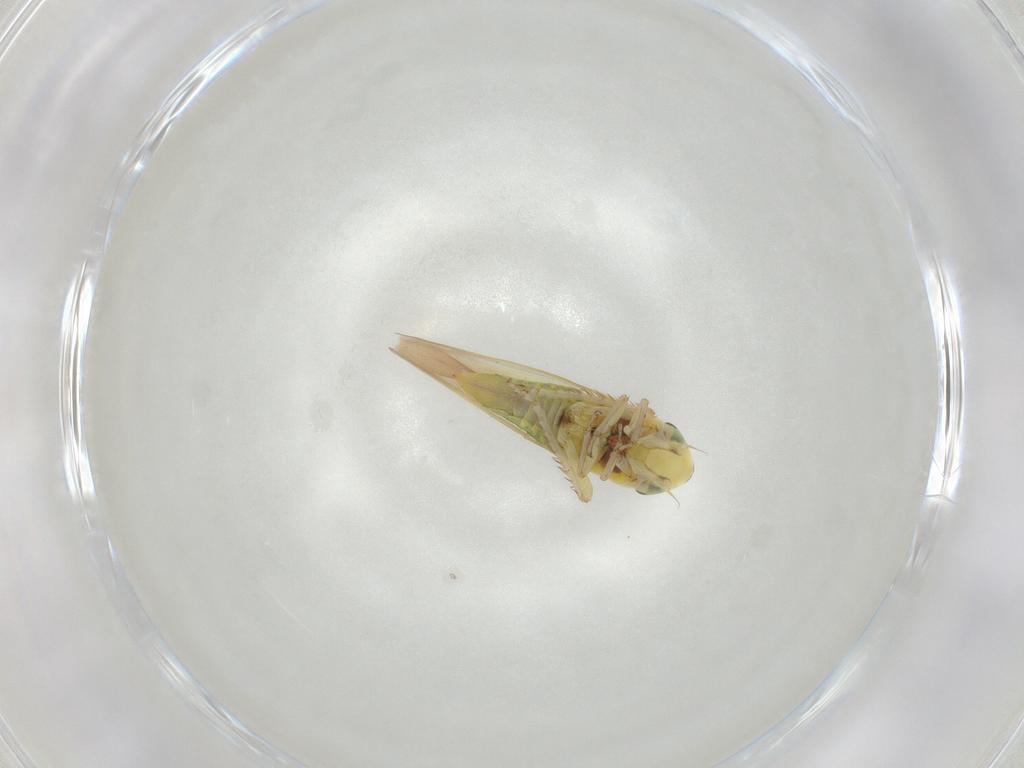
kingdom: Animalia
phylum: Arthropoda
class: Insecta
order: Hemiptera
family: Cicadellidae
